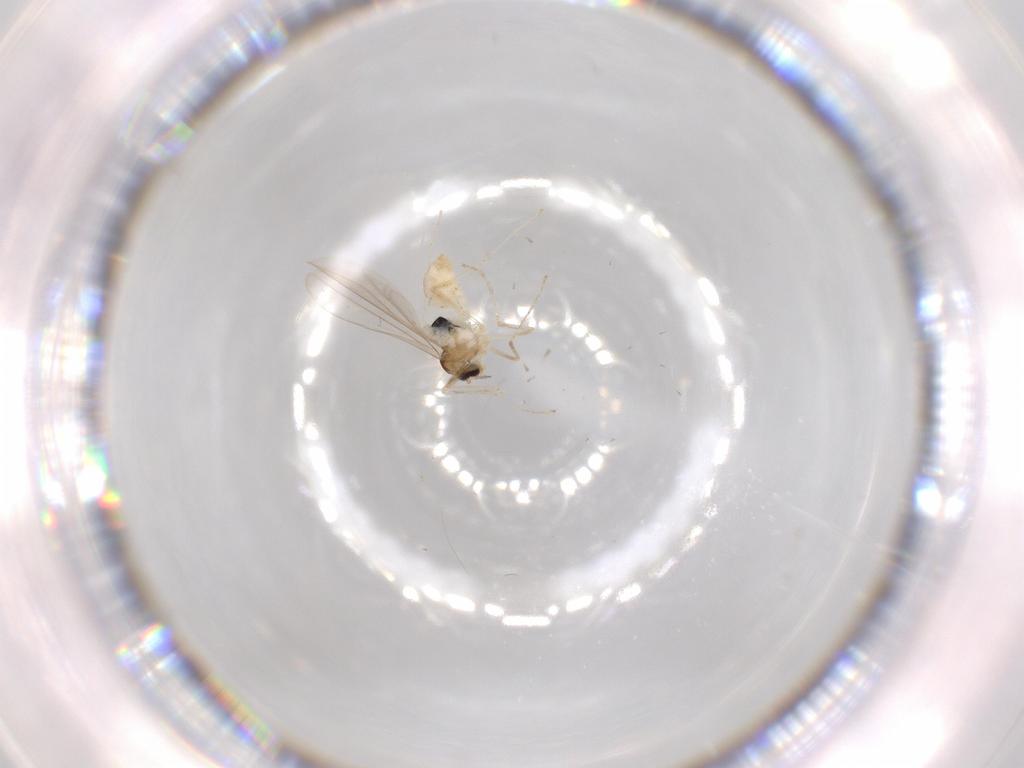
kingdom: Animalia
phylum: Arthropoda
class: Insecta
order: Diptera
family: Cecidomyiidae
